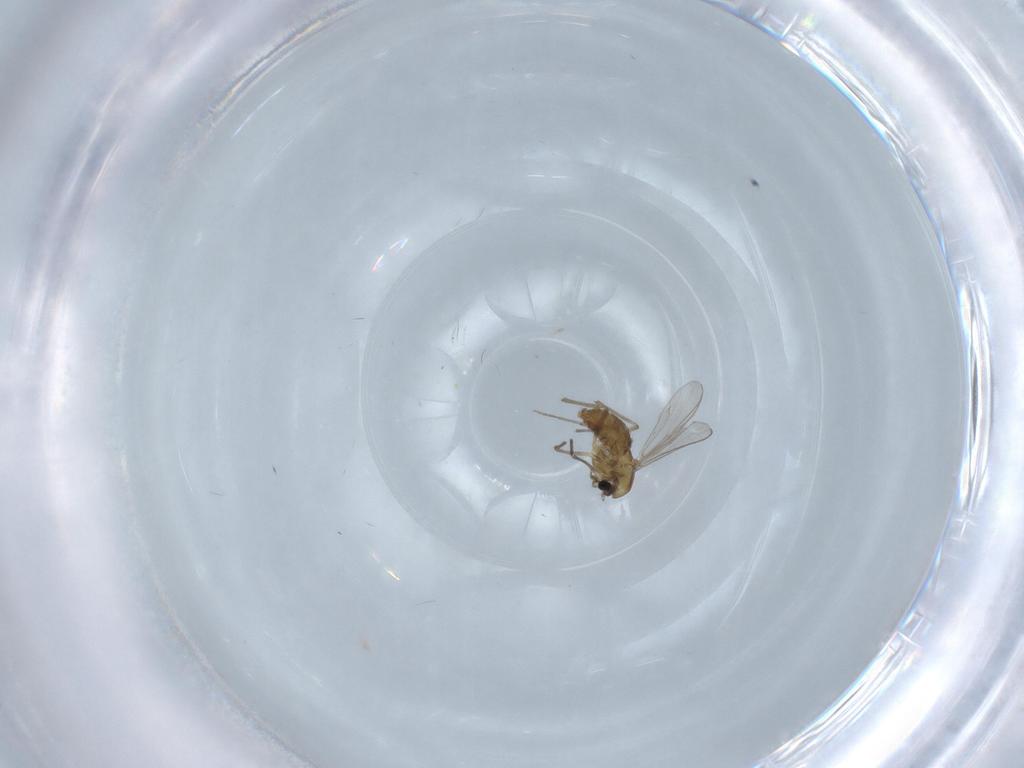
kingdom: Animalia
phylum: Arthropoda
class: Insecta
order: Diptera
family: Chironomidae
